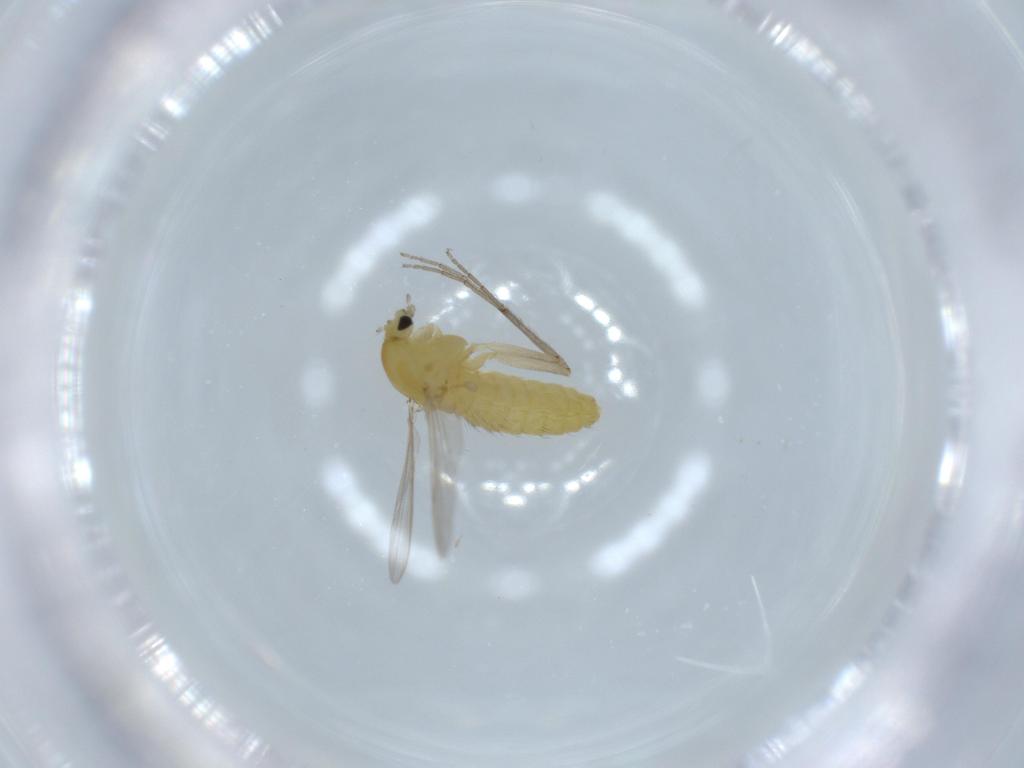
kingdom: Animalia
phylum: Arthropoda
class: Insecta
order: Diptera
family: Chironomidae
